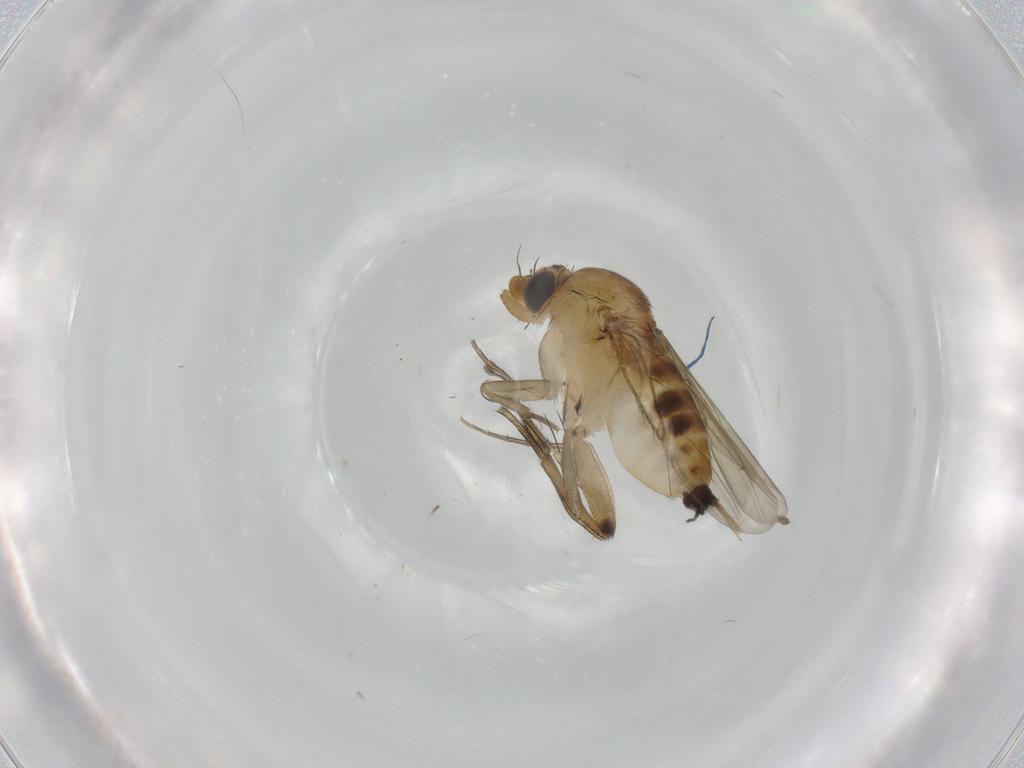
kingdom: Animalia
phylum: Arthropoda
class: Insecta
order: Diptera
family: Phoridae
